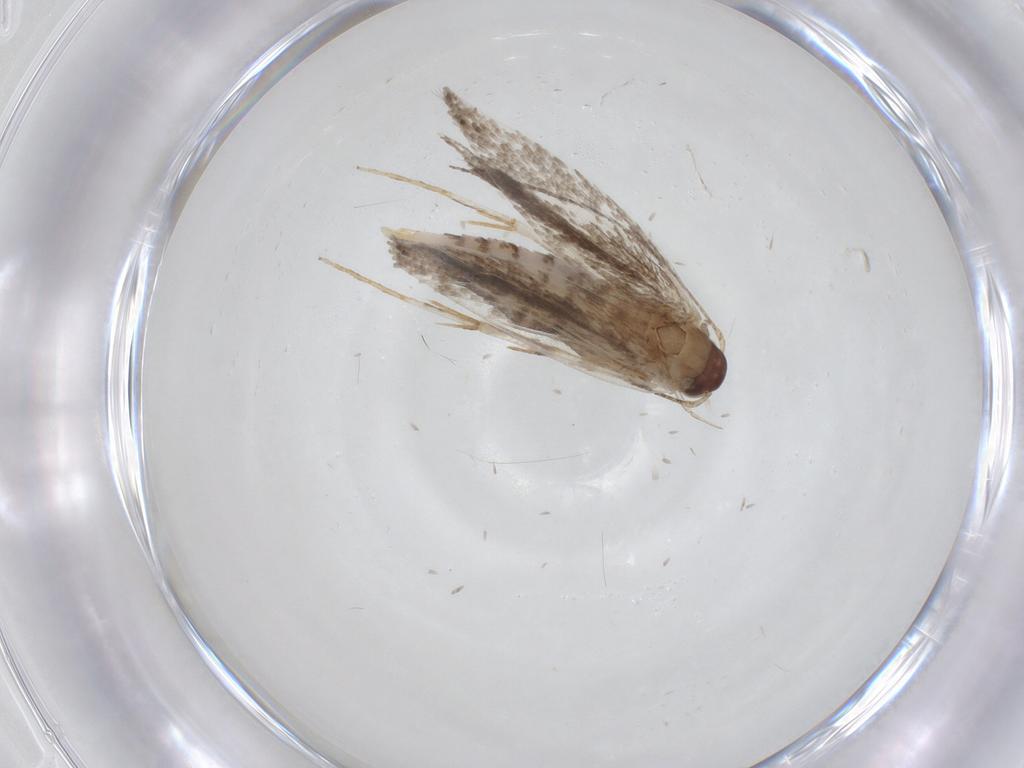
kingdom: Animalia
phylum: Arthropoda
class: Insecta
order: Lepidoptera
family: Gelechiidae
